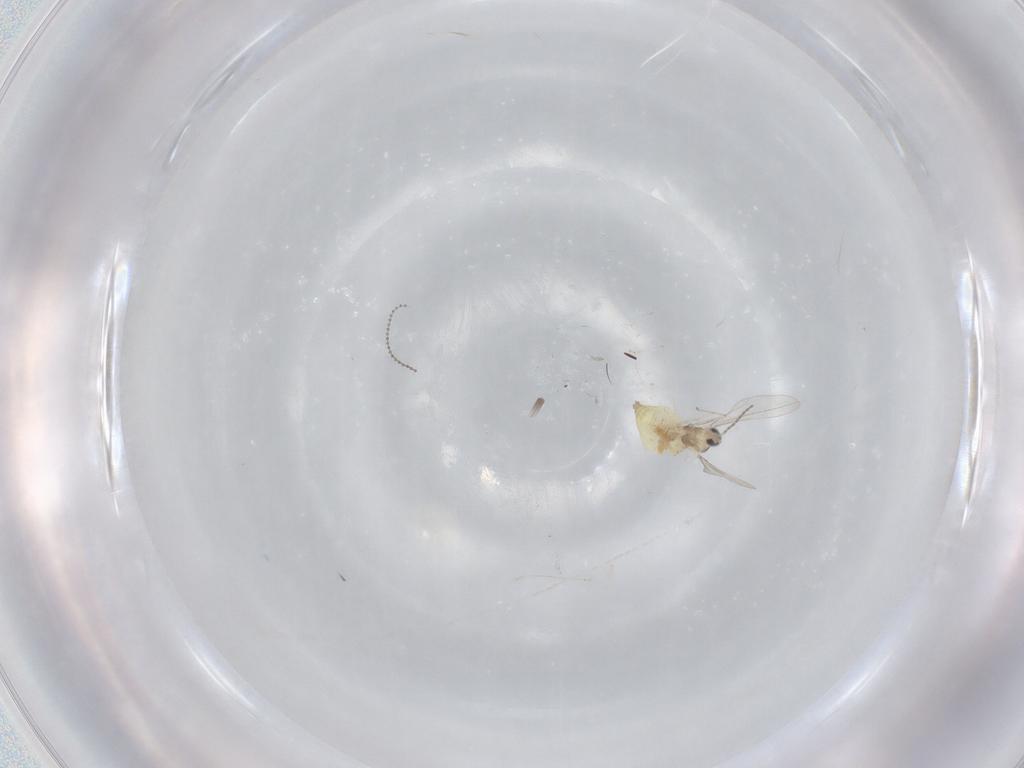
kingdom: Animalia
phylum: Arthropoda
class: Insecta
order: Diptera
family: Cecidomyiidae
